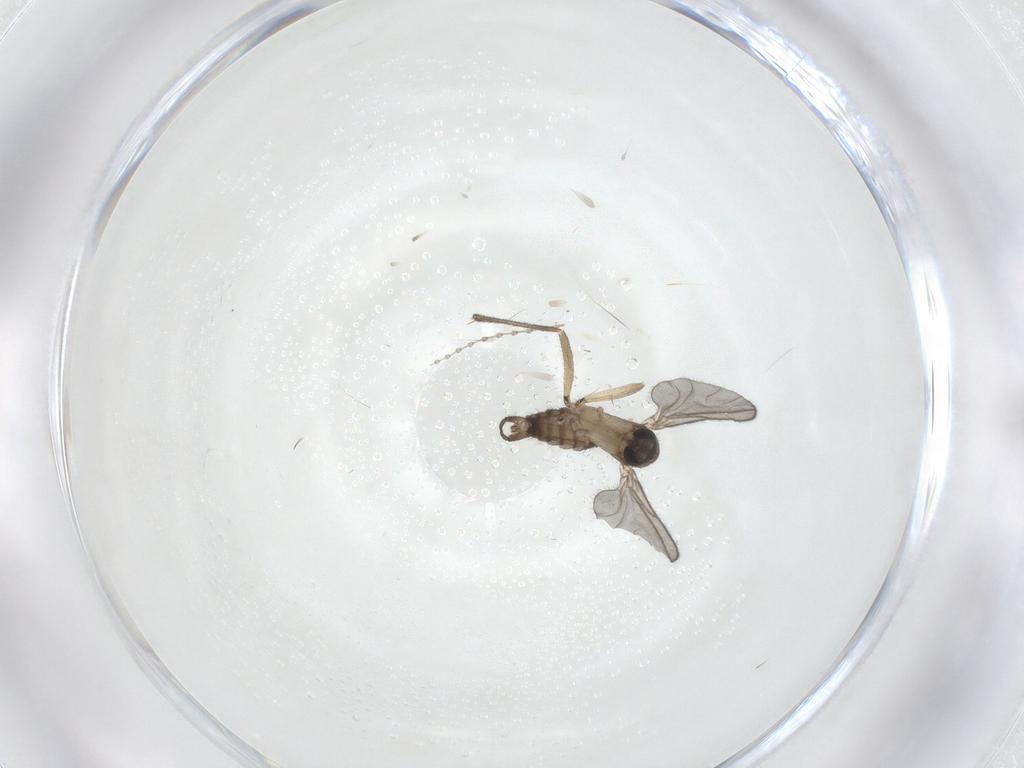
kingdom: Animalia
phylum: Arthropoda
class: Insecta
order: Diptera
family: Sciaridae
